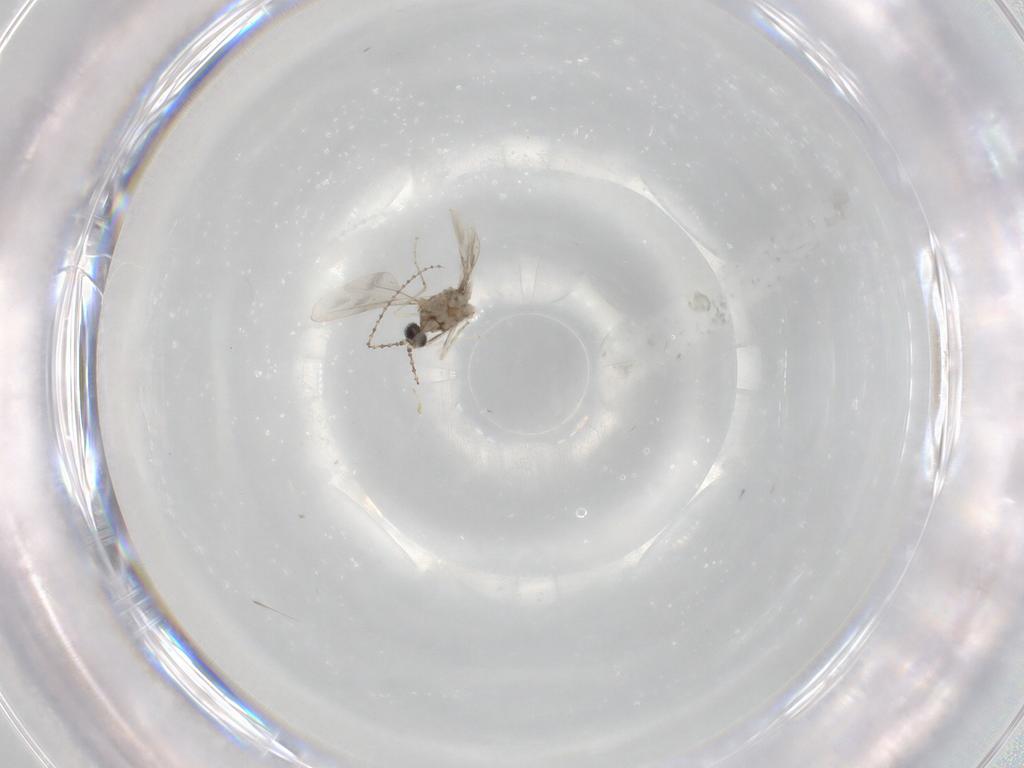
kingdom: Animalia
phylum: Arthropoda
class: Insecta
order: Diptera
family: Cecidomyiidae
